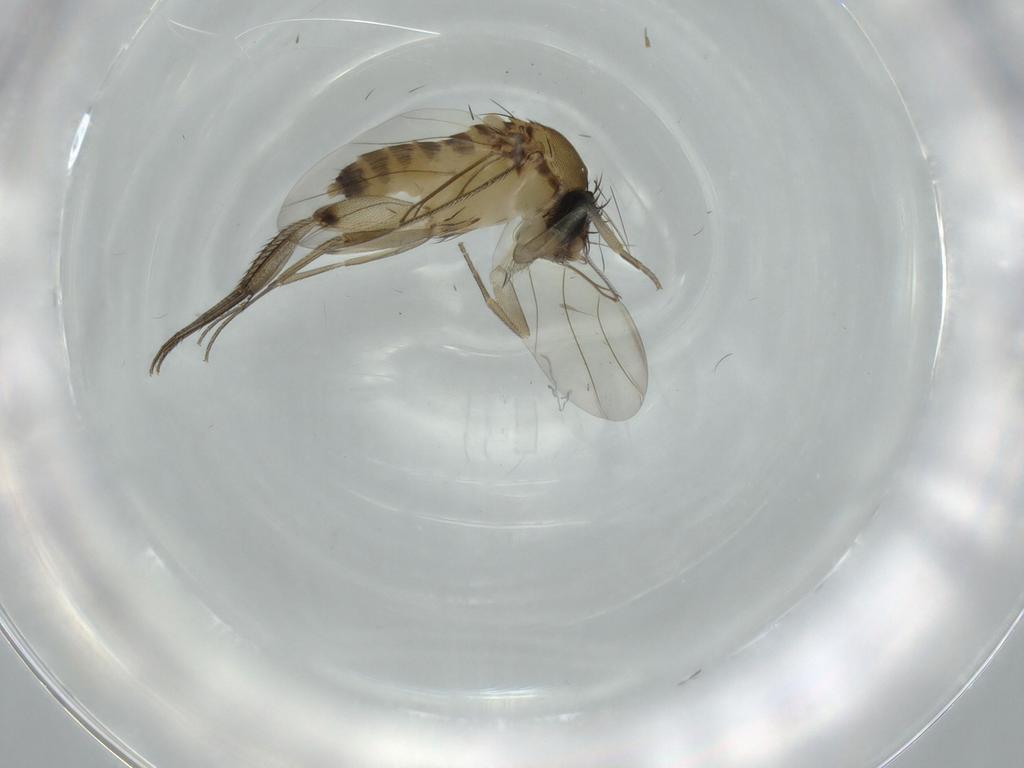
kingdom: Animalia
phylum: Arthropoda
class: Insecta
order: Diptera
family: Phoridae
